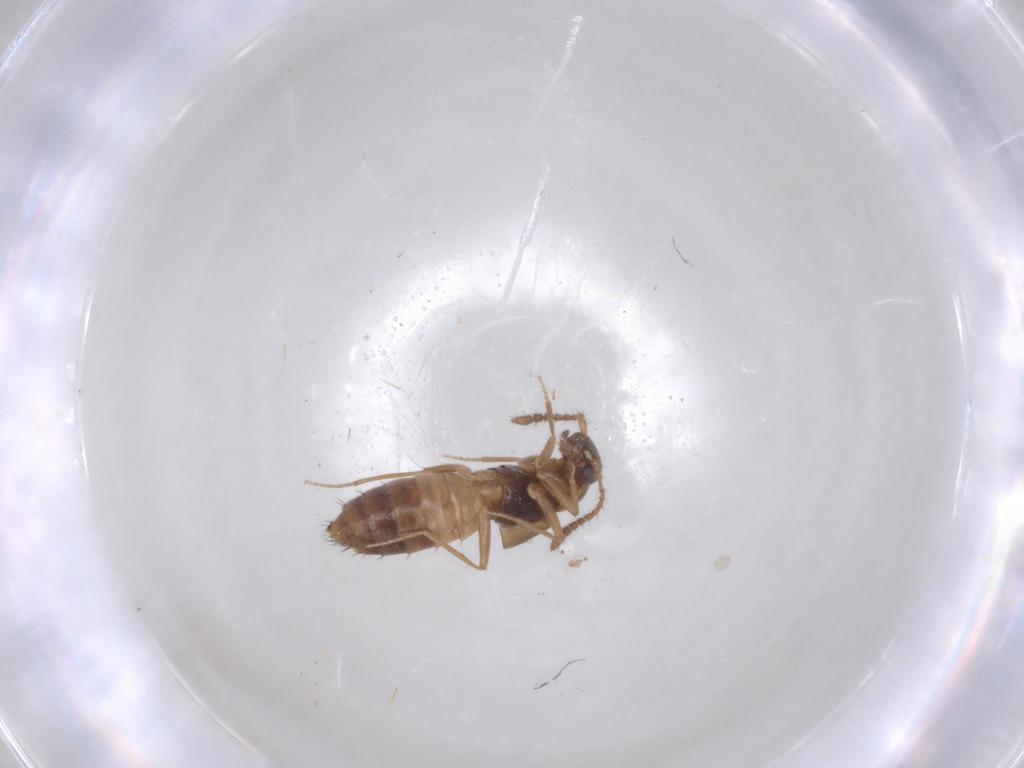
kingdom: Animalia
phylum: Arthropoda
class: Insecta
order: Coleoptera
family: Staphylinidae
